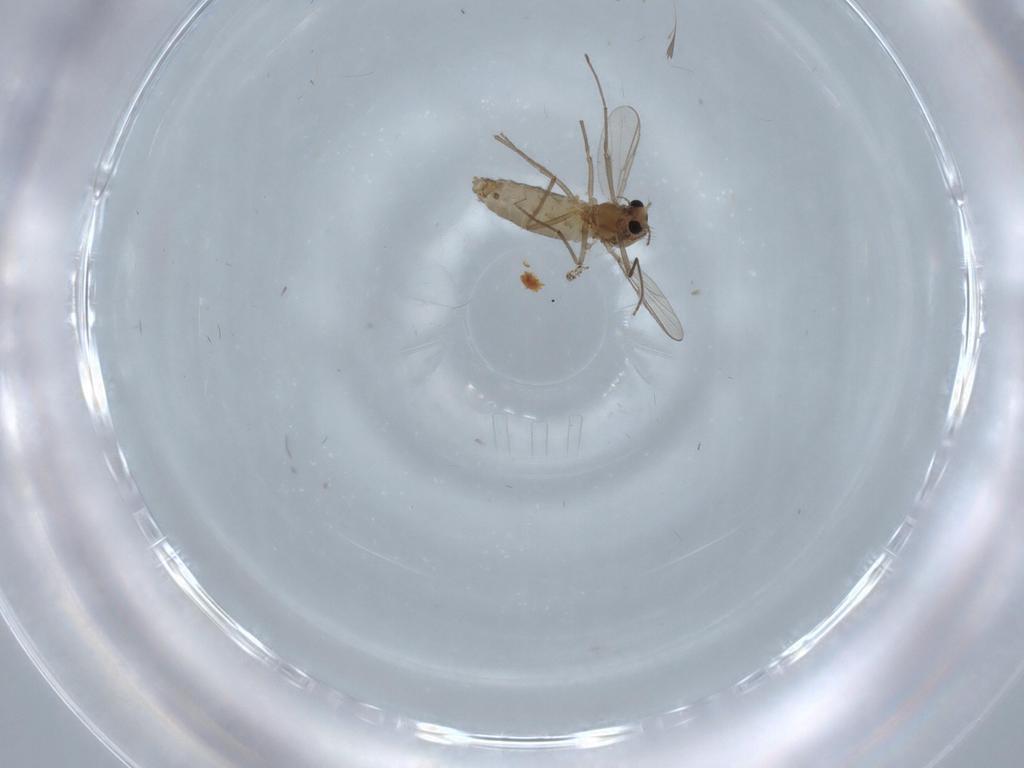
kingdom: Animalia
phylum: Arthropoda
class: Insecta
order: Diptera
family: Chironomidae
